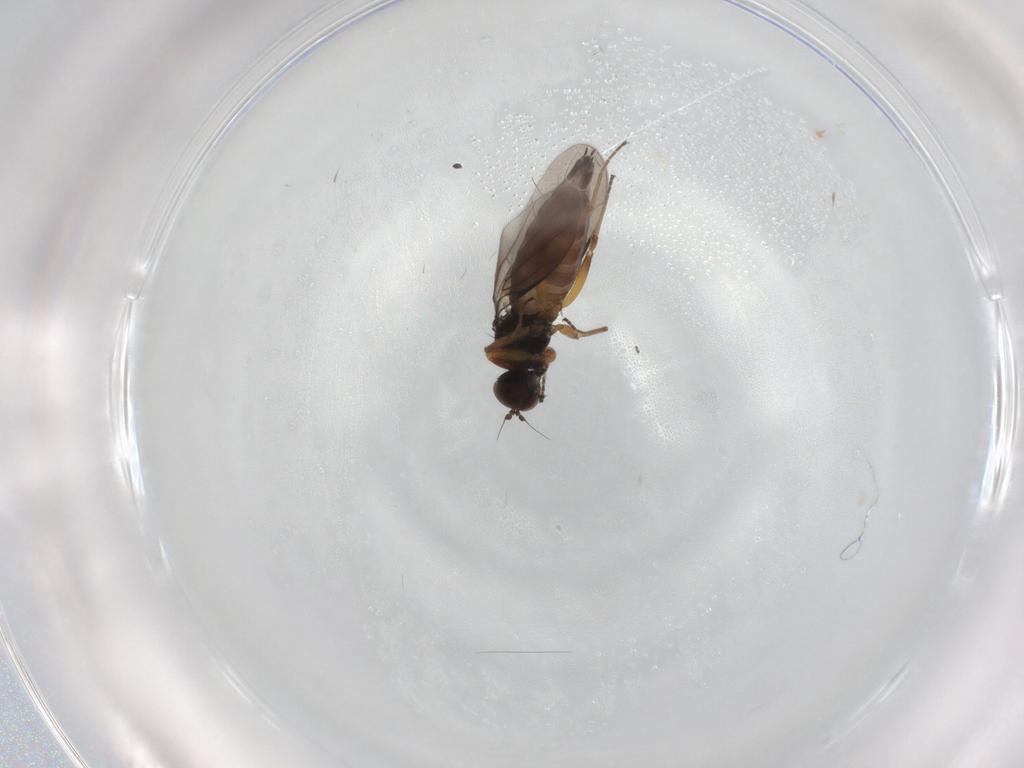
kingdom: Animalia
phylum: Arthropoda
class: Insecta
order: Diptera
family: Hybotidae
